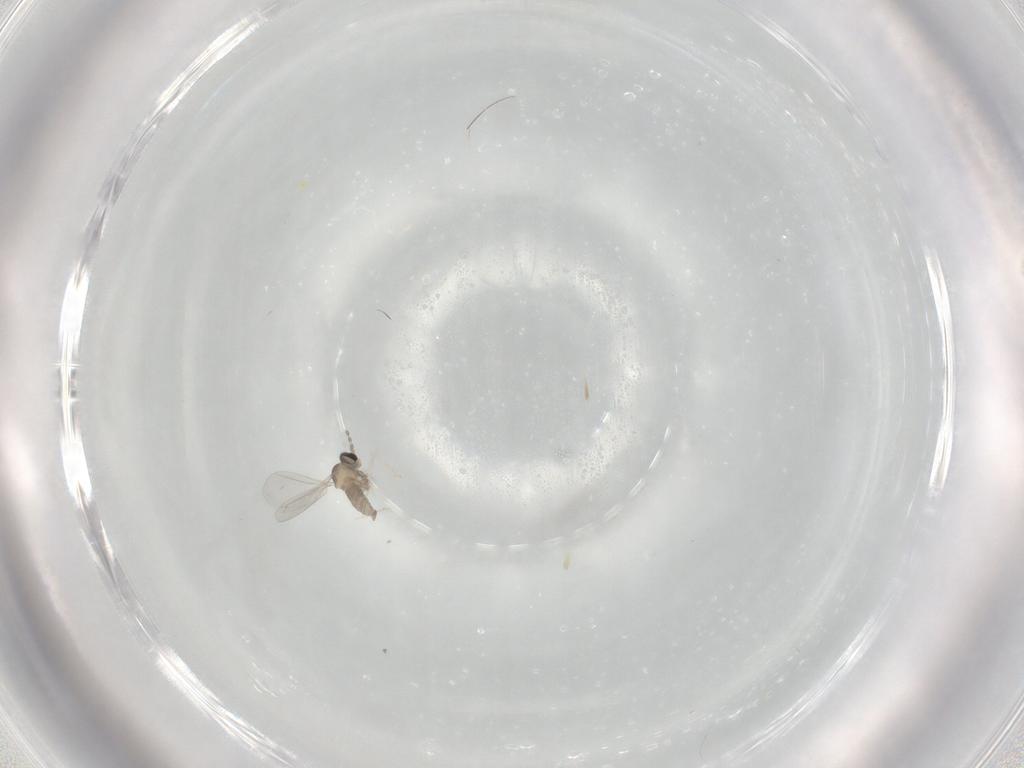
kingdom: Animalia
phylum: Arthropoda
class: Insecta
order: Diptera
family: Cecidomyiidae
